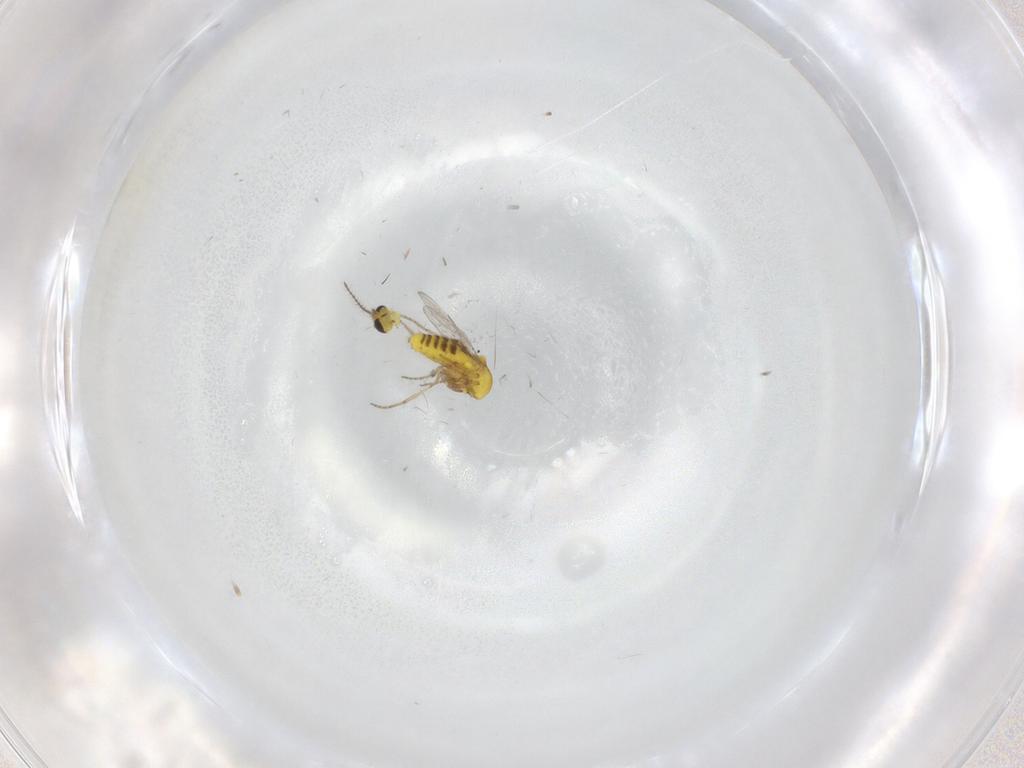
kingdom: Animalia
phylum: Arthropoda
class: Insecta
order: Diptera
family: Ceratopogonidae
